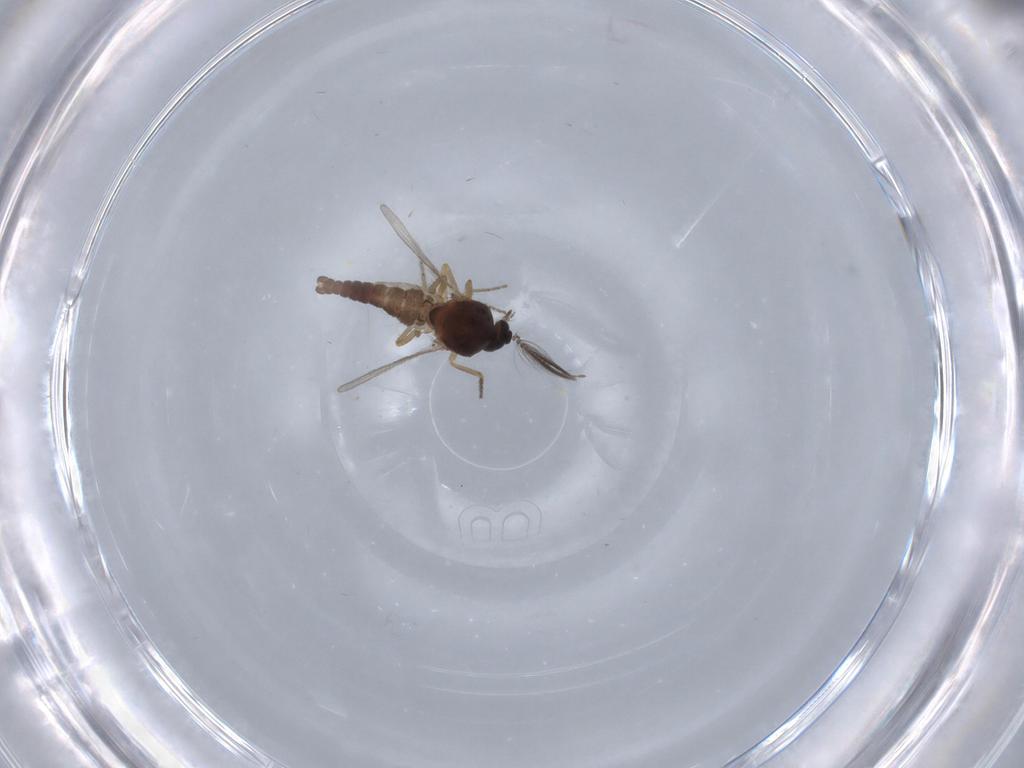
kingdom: Animalia
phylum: Arthropoda
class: Insecta
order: Diptera
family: Ceratopogonidae
